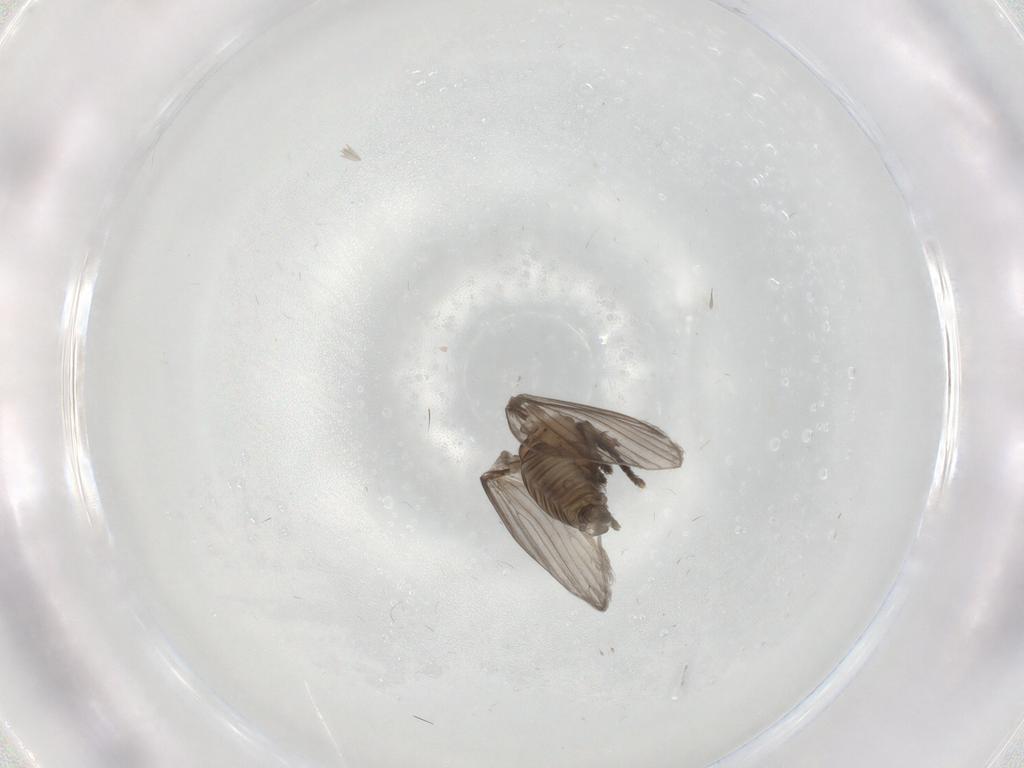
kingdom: Animalia
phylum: Arthropoda
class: Insecta
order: Diptera
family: Psychodidae
